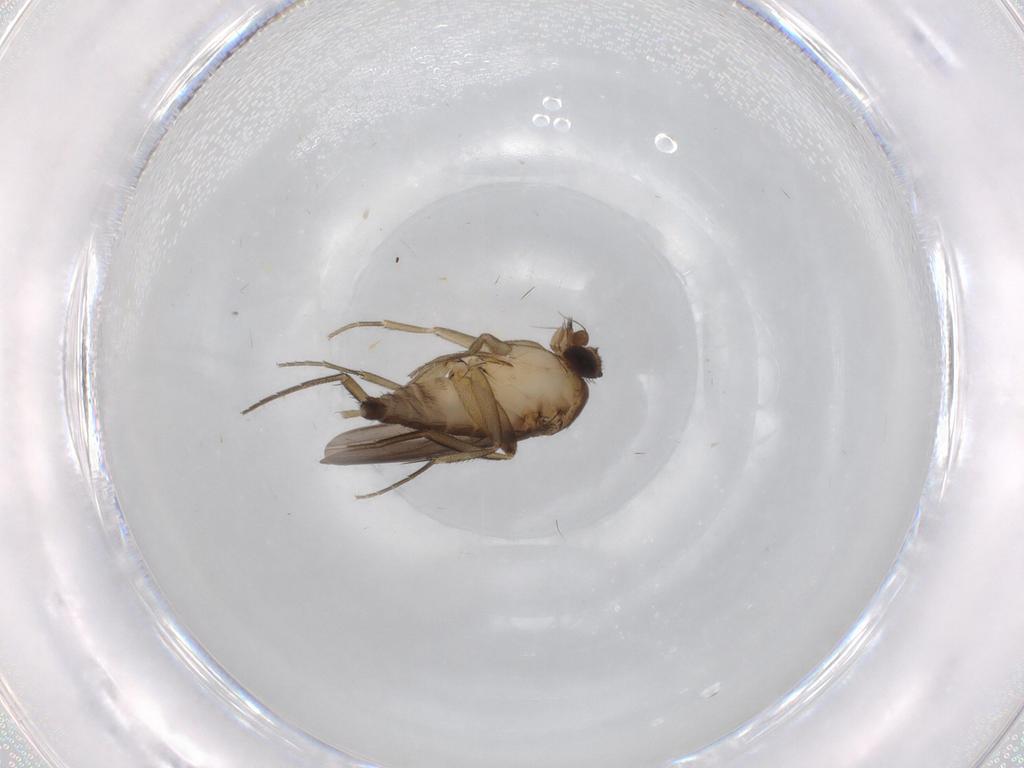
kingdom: Animalia
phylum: Arthropoda
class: Insecta
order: Diptera
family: Phoridae
